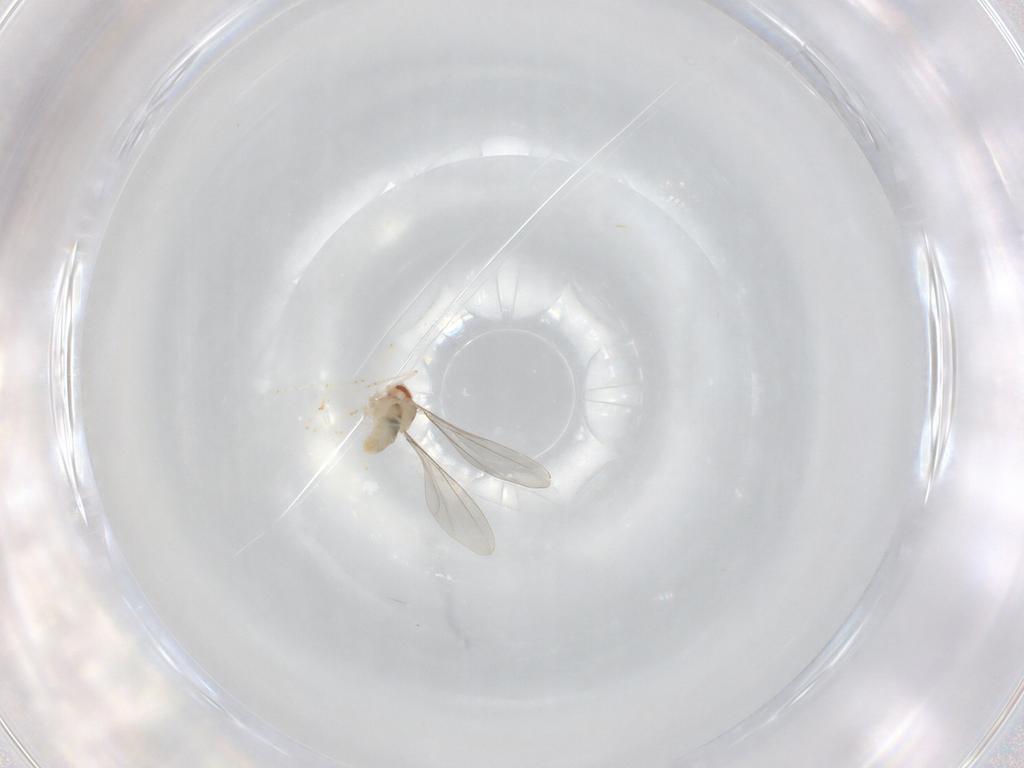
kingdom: Animalia
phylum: Arthropoda
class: Insecta
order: Diptera
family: Cecidomyiidae
